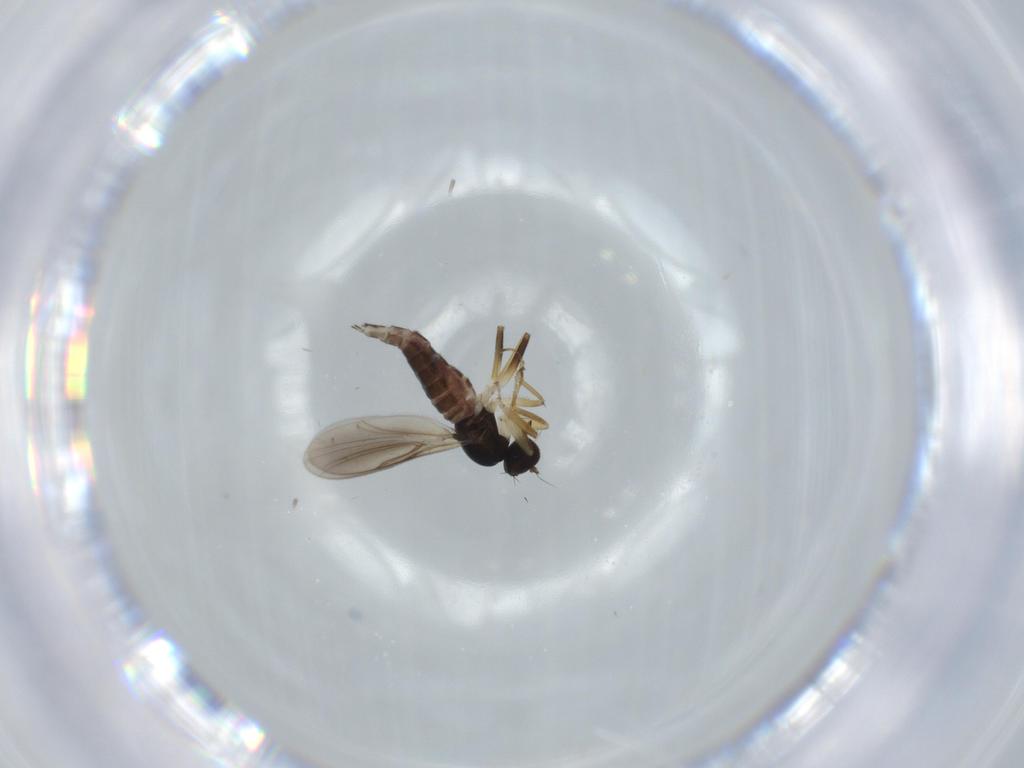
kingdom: Animalia
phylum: Arthropoda
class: Insecta
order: Diptera
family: Hybotidae
